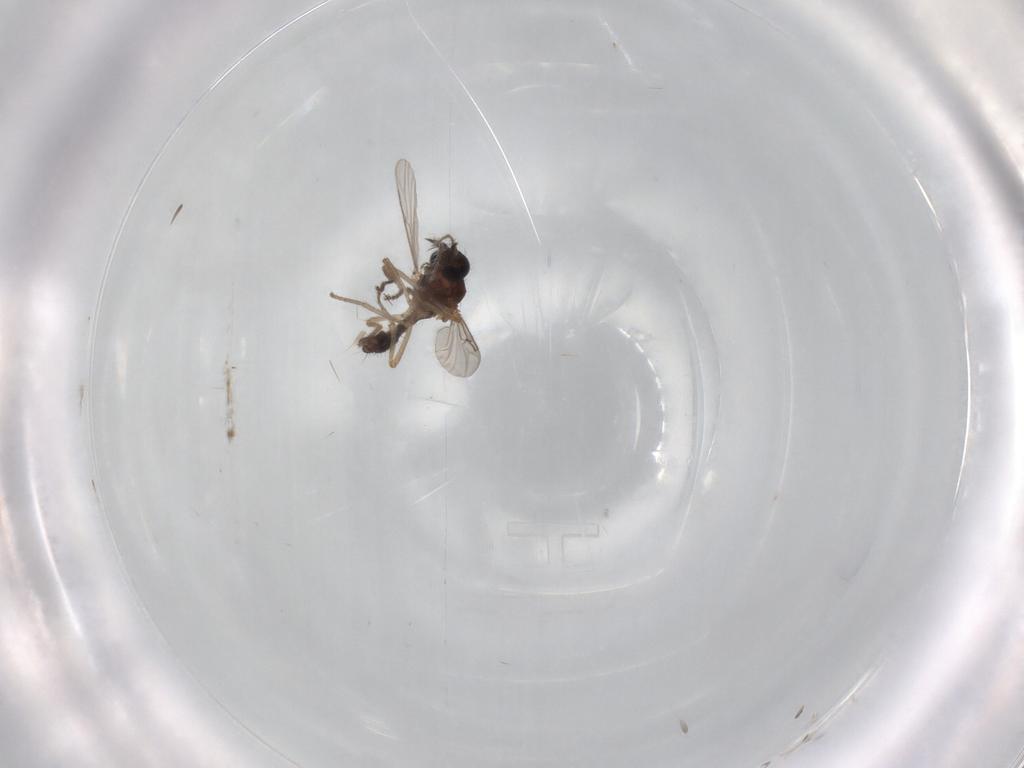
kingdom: Animalia
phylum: Arthropoda
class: Insecta
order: Diptera
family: Ceratopogonidae
